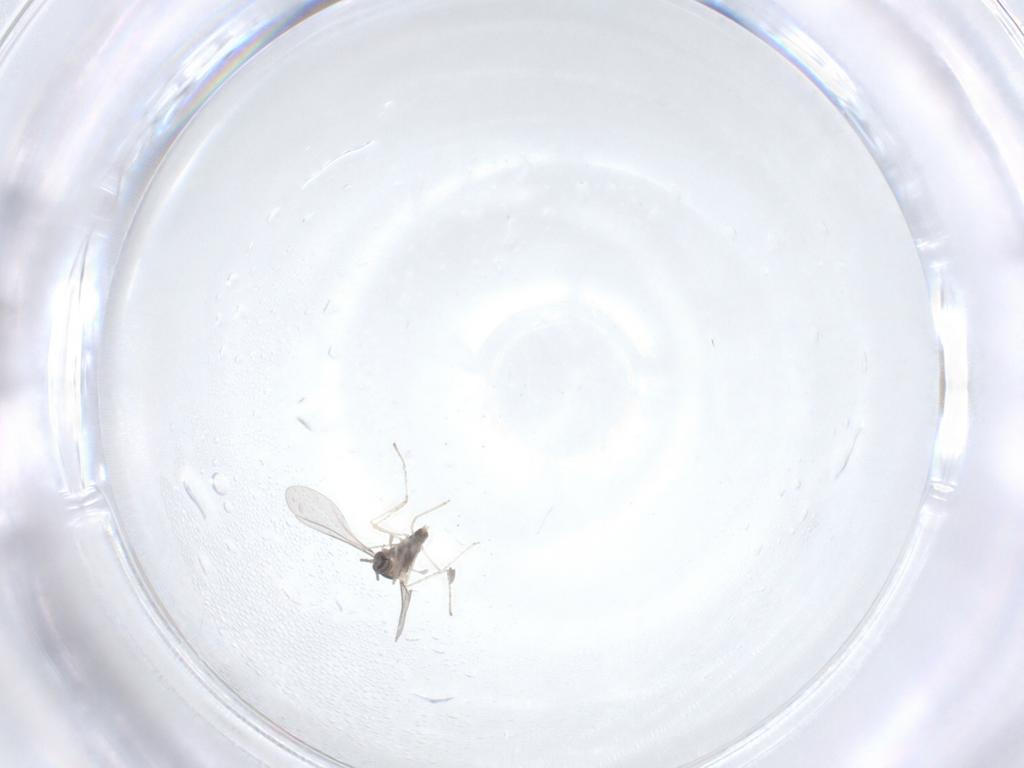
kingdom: Animalia
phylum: Arthropoda
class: Insecta
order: Diptera
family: Cecidomyiidae
